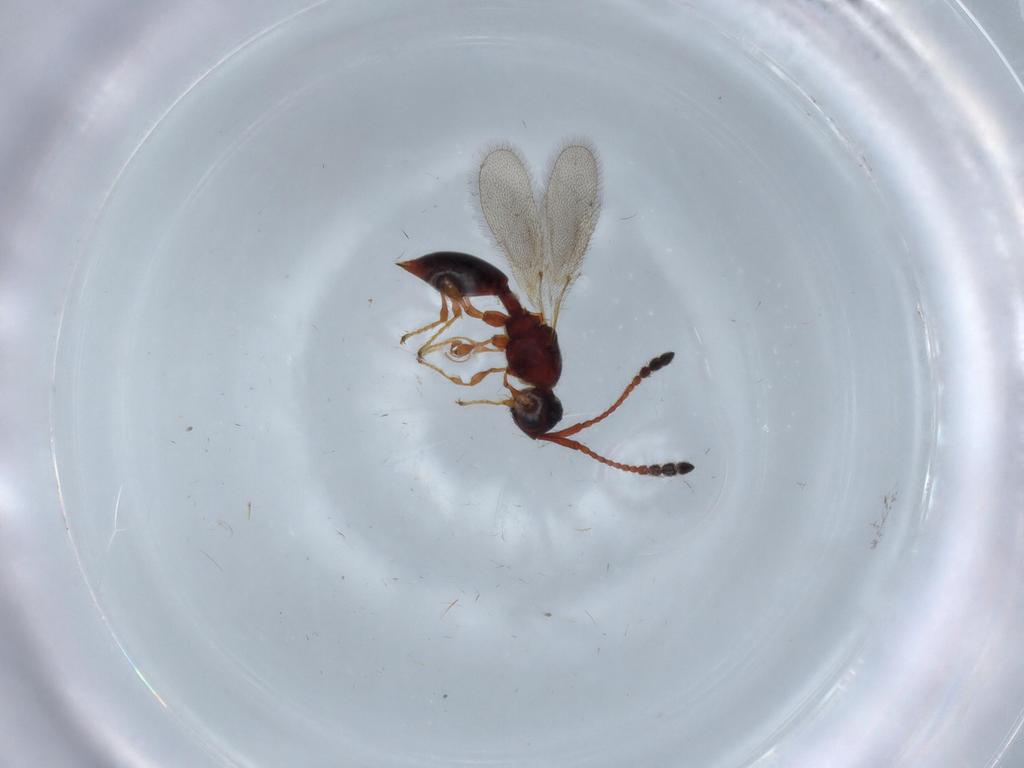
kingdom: Animalia
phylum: Arthropoda
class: Insecta
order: Hymenoptera
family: Diapriidae
